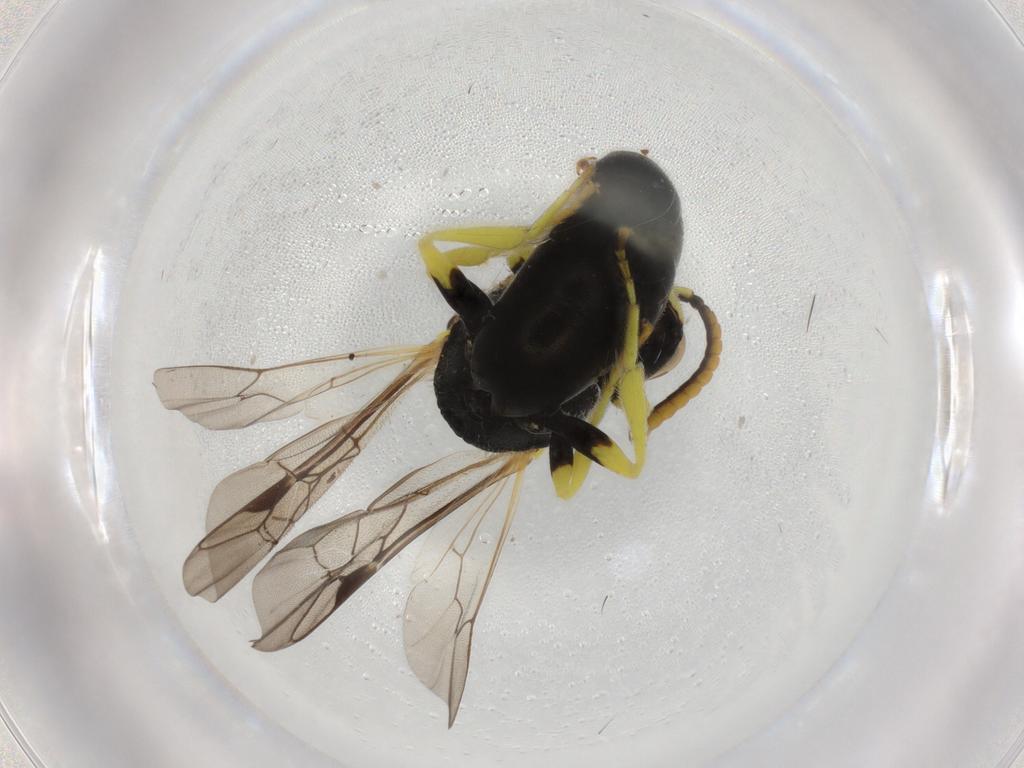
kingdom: Animalia
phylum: Arthropoda
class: Insecta
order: Hymenoptera
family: Colletidae
